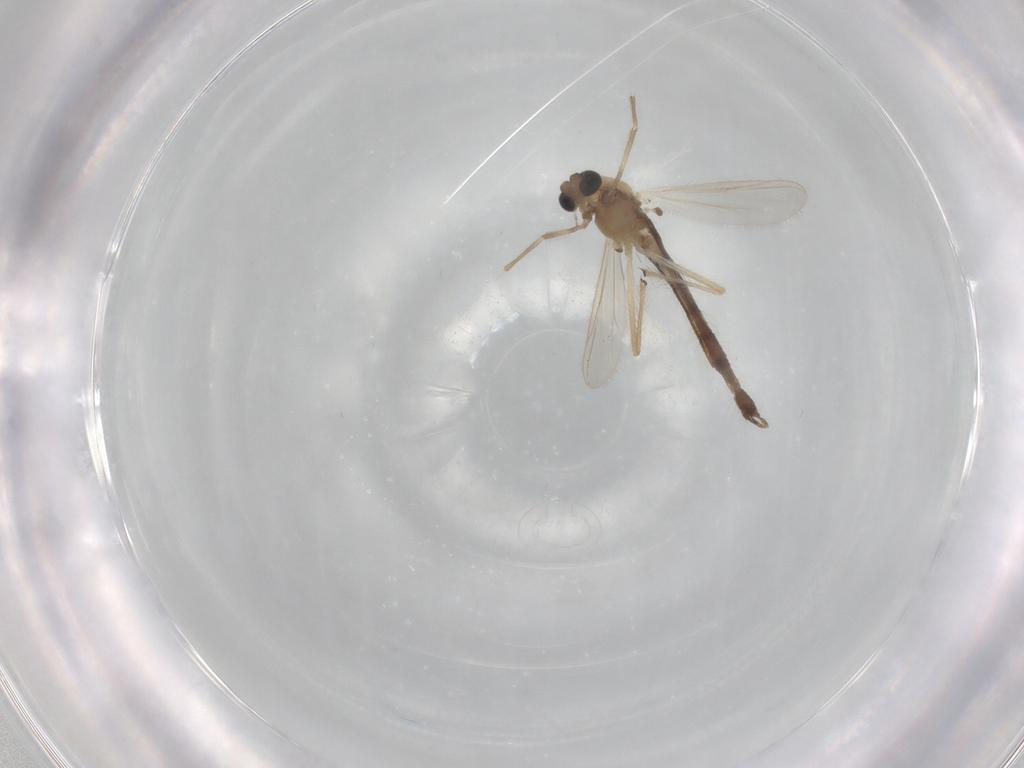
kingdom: Animalia
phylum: Arthropoda
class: Insecta
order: Diptera
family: Chironomidae
